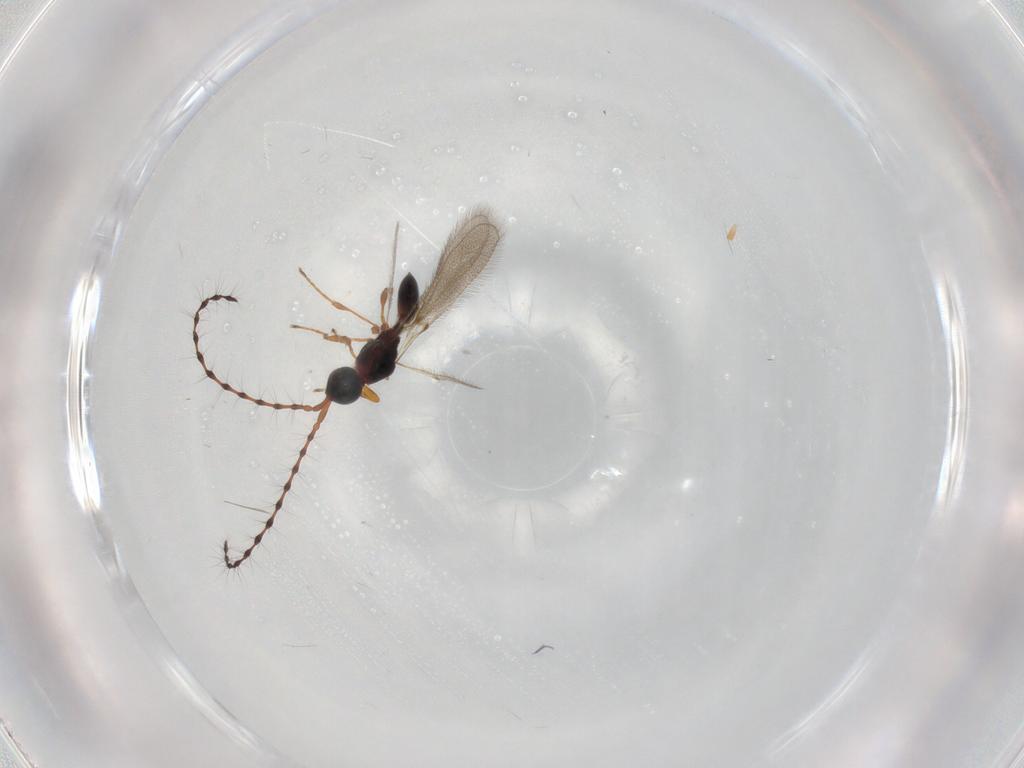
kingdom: Animalia
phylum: Arthropoda
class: Insecta
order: Hymenoptera
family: Diapriidae
